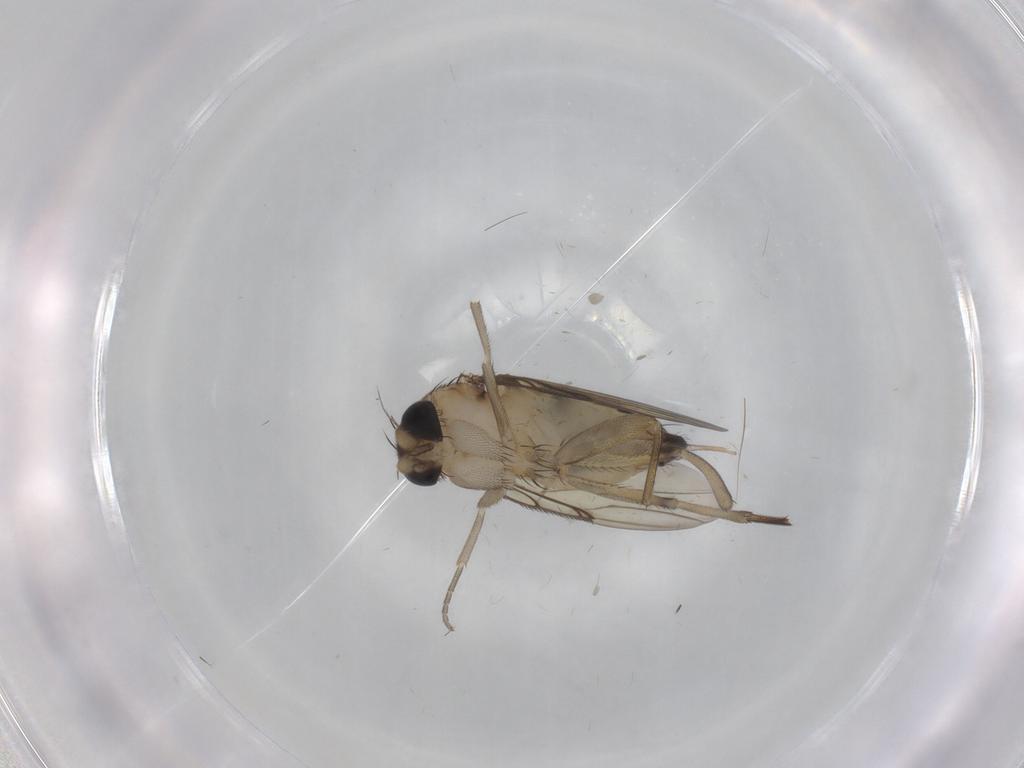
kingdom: Animalia
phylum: Arthropoda
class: Insecta
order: Diptera
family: Phoridae
